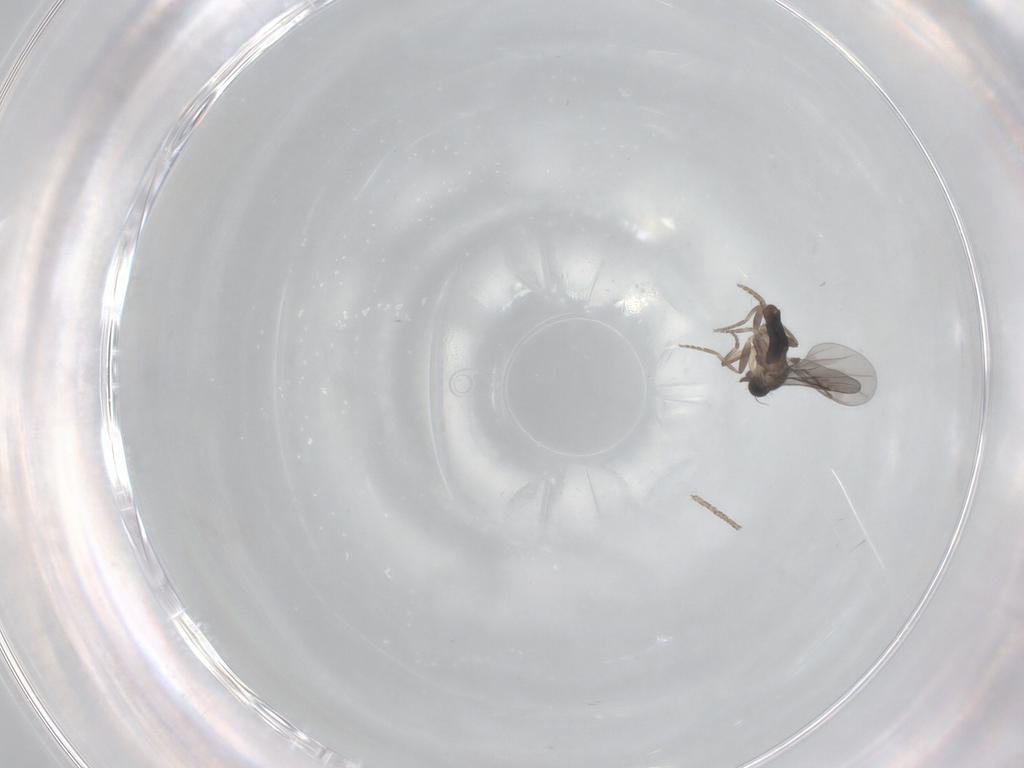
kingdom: Animalia
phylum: Arthropoda
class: Insecta
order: Diptera
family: Phoridae
